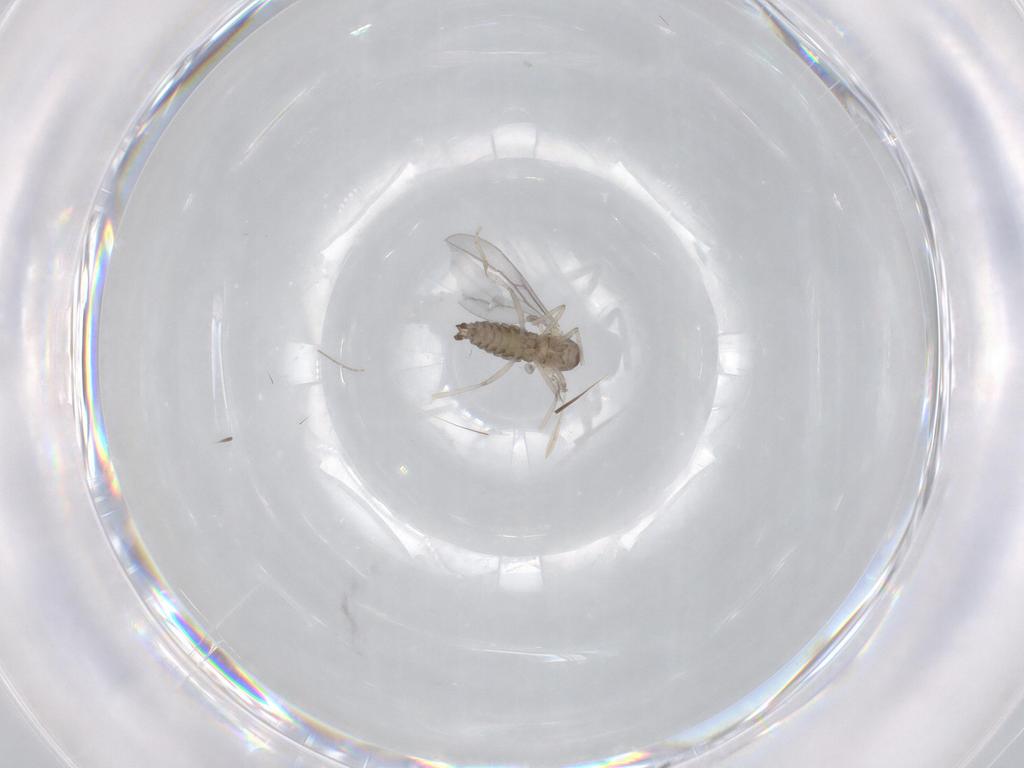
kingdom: Animalia
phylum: Arthropoda
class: Insecta
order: Diptera
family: Cecidomyiidae
